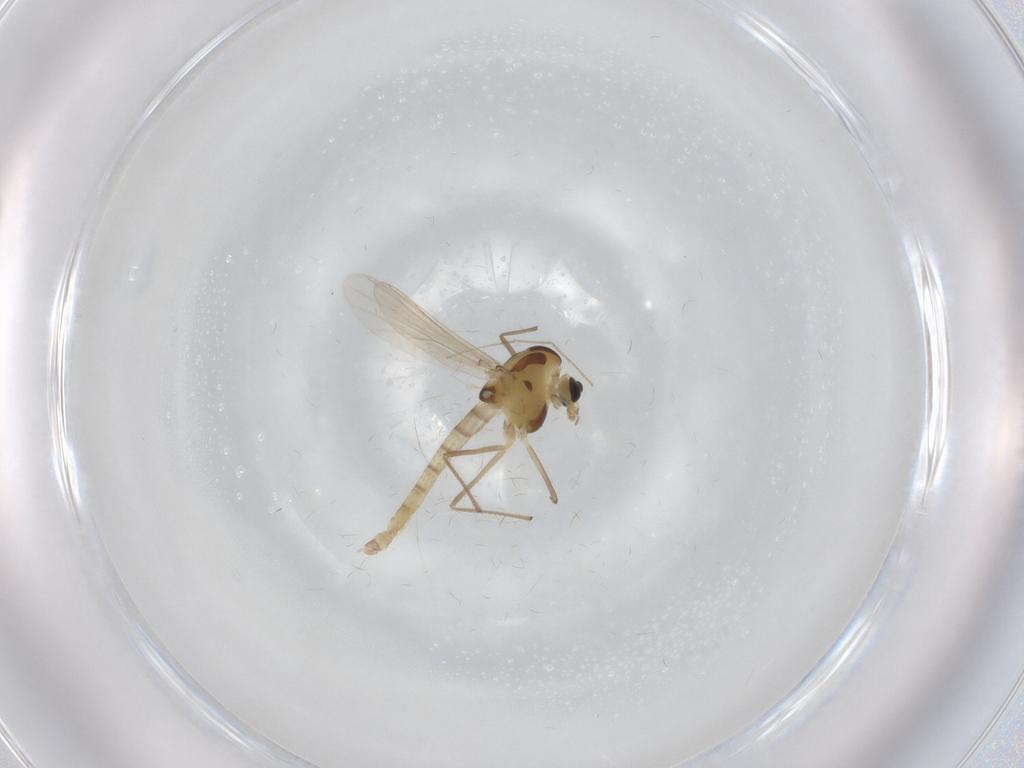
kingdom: Animalia
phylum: Arthropoda
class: Insecta
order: Diptera
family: Chironomidae
